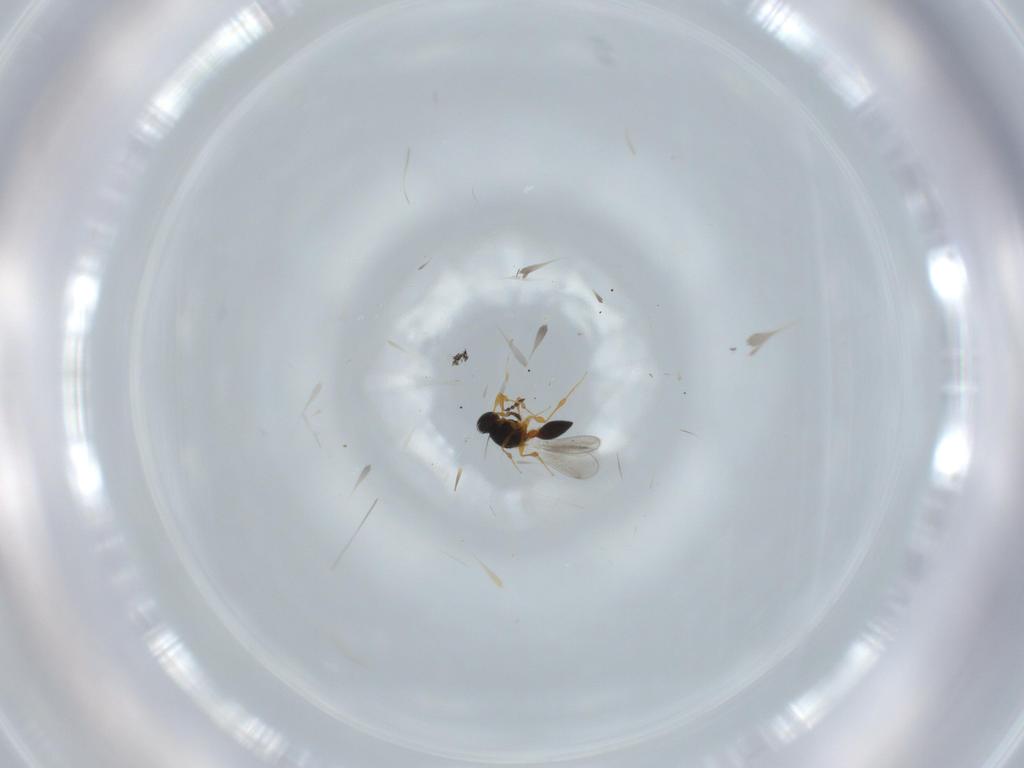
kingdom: Animalia
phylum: Arthropoda
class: Insecta
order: Hymenoptera
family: Platygastridae
